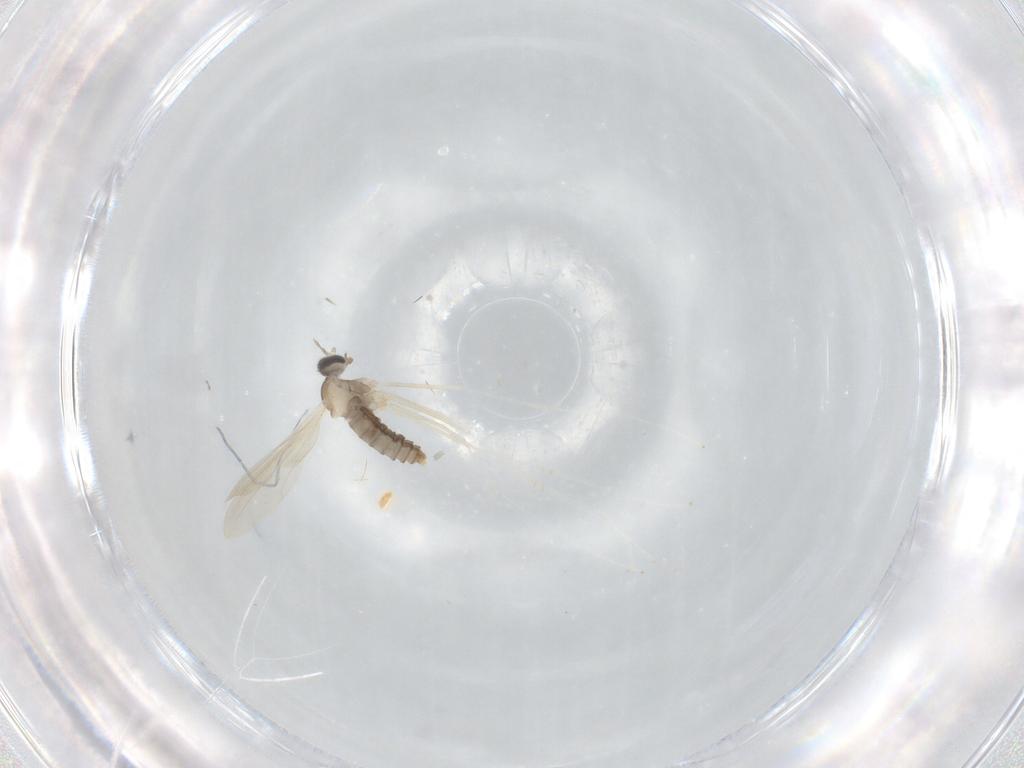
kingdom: Animalia
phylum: Arthropoda
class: Insecta
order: Diptera
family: Cecidomyiidae
